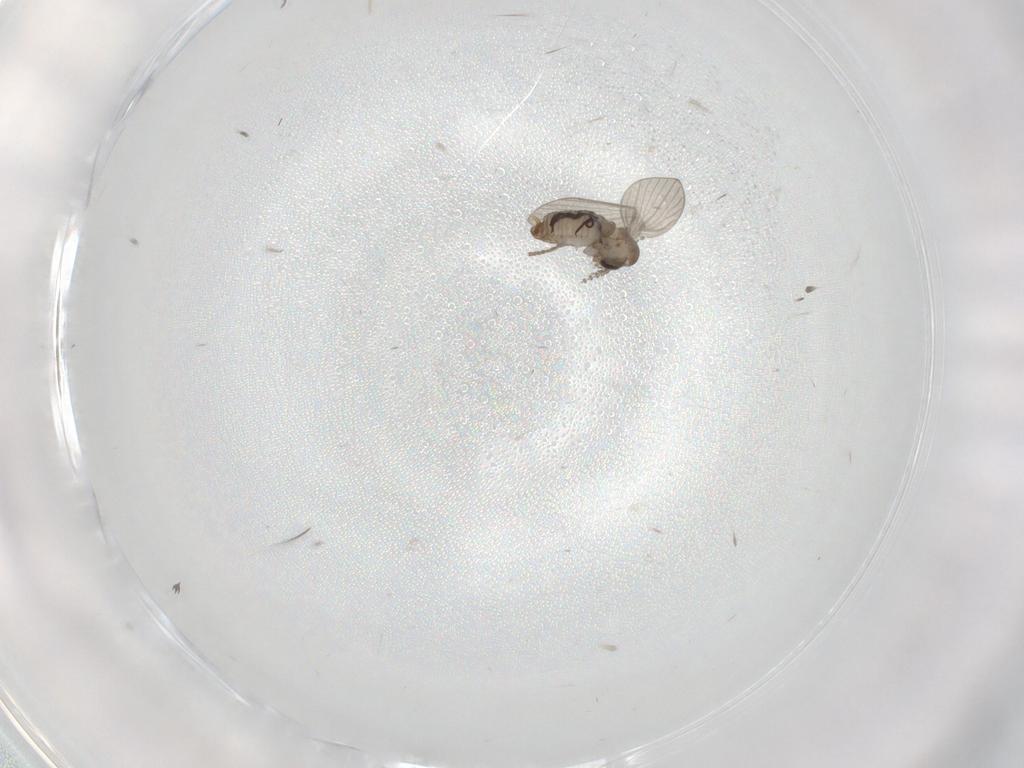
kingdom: Animalia
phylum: Arthropoda
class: Insecta
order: Diptera
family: Psychodidae
